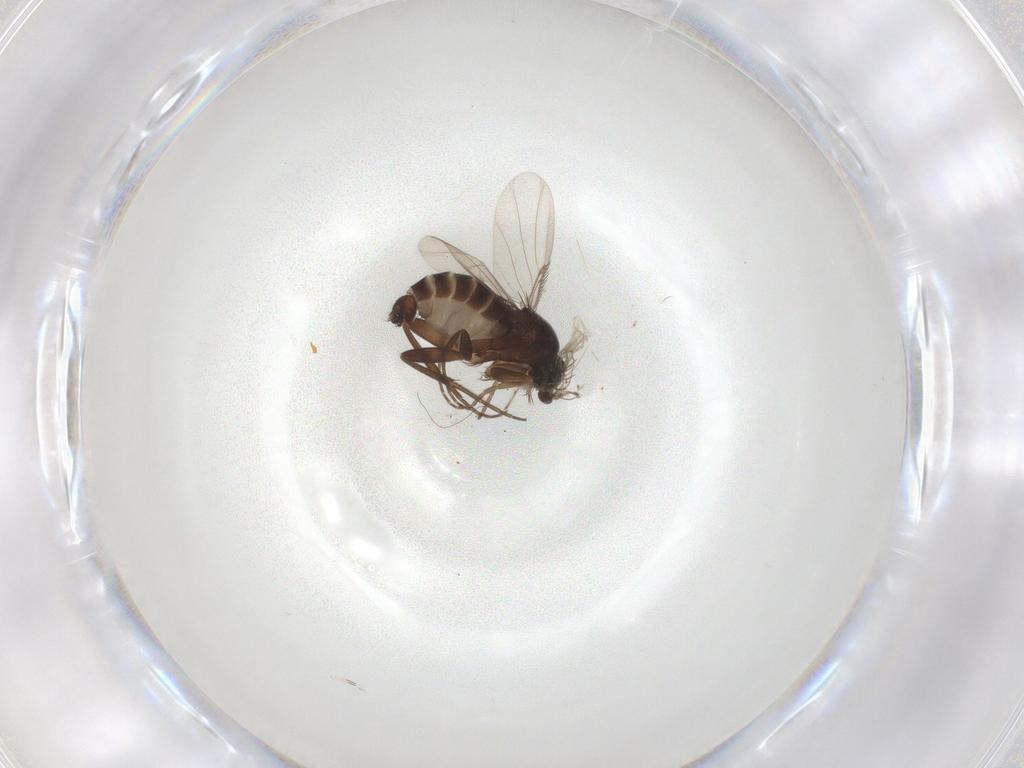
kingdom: Animalia
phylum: Arthropoda
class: Insecta
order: Diptera
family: Phoridae
